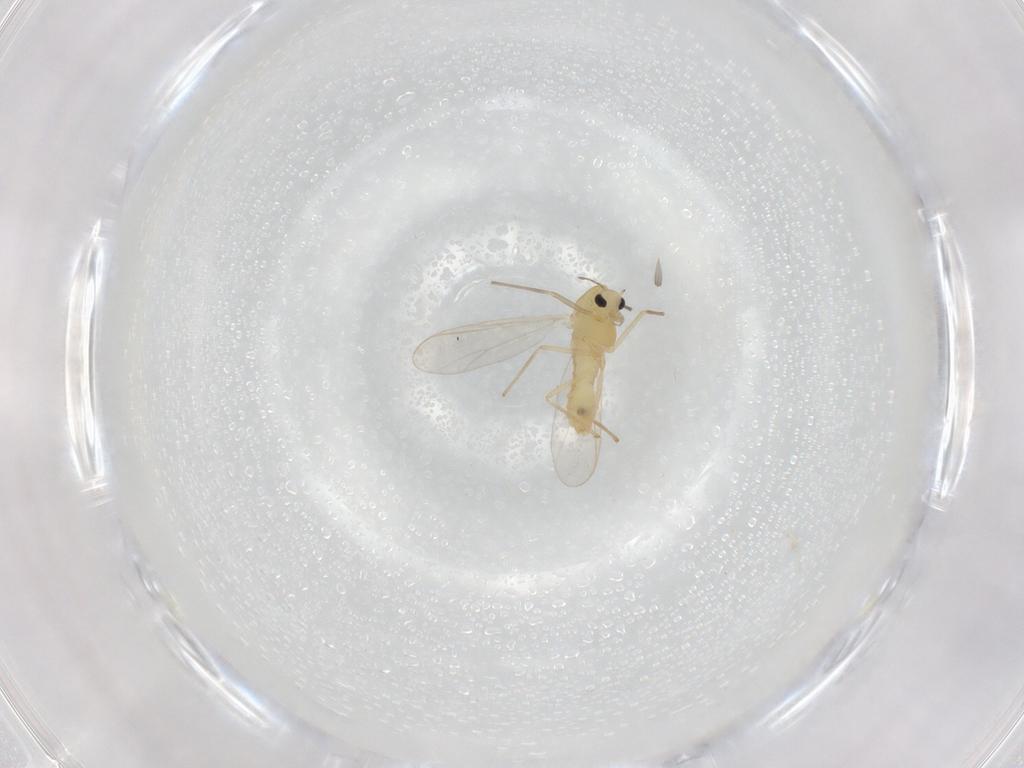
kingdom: Animalia
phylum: Arthropoda
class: Insecta
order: Diptera
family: Chironomidae
